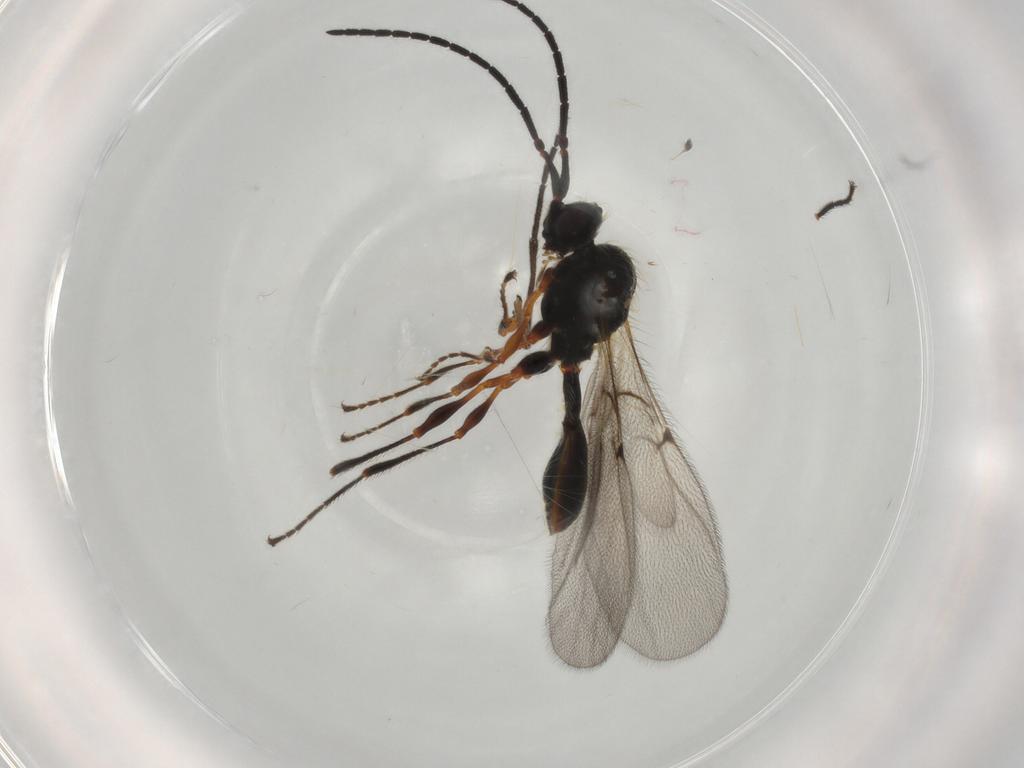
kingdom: Animalia
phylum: Arthropoda
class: Insecta
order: Hymenoptera
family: Diapriidae
